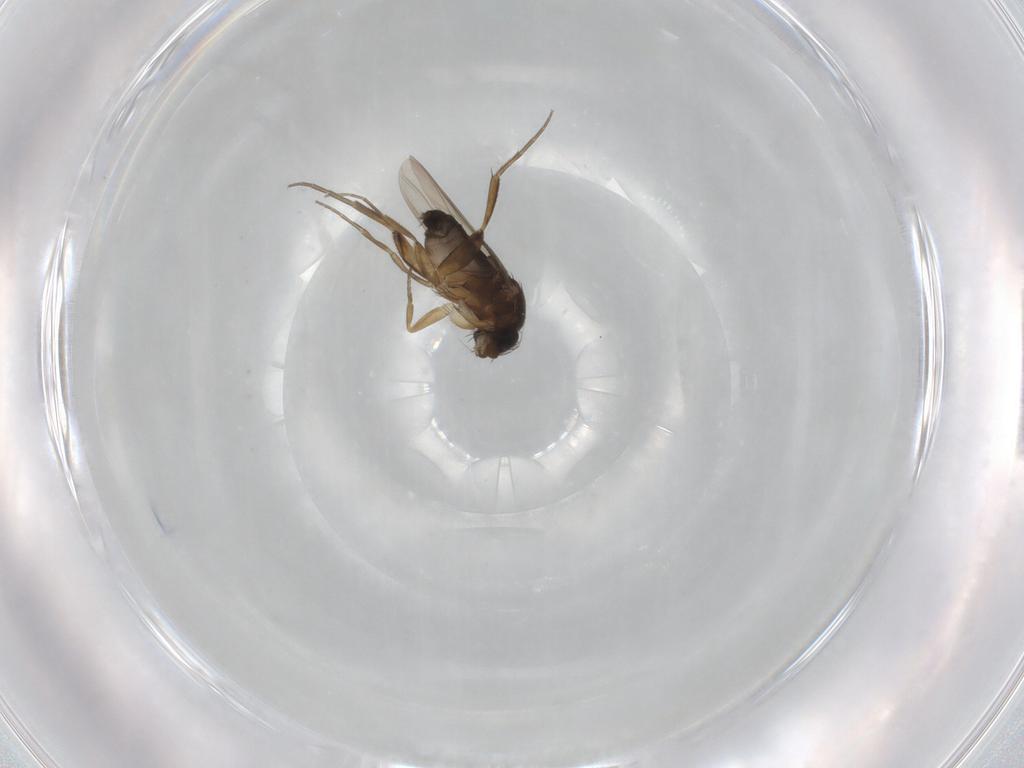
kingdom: Animalia
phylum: Arthropoda
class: Insecta
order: Diptera
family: Phoridae
